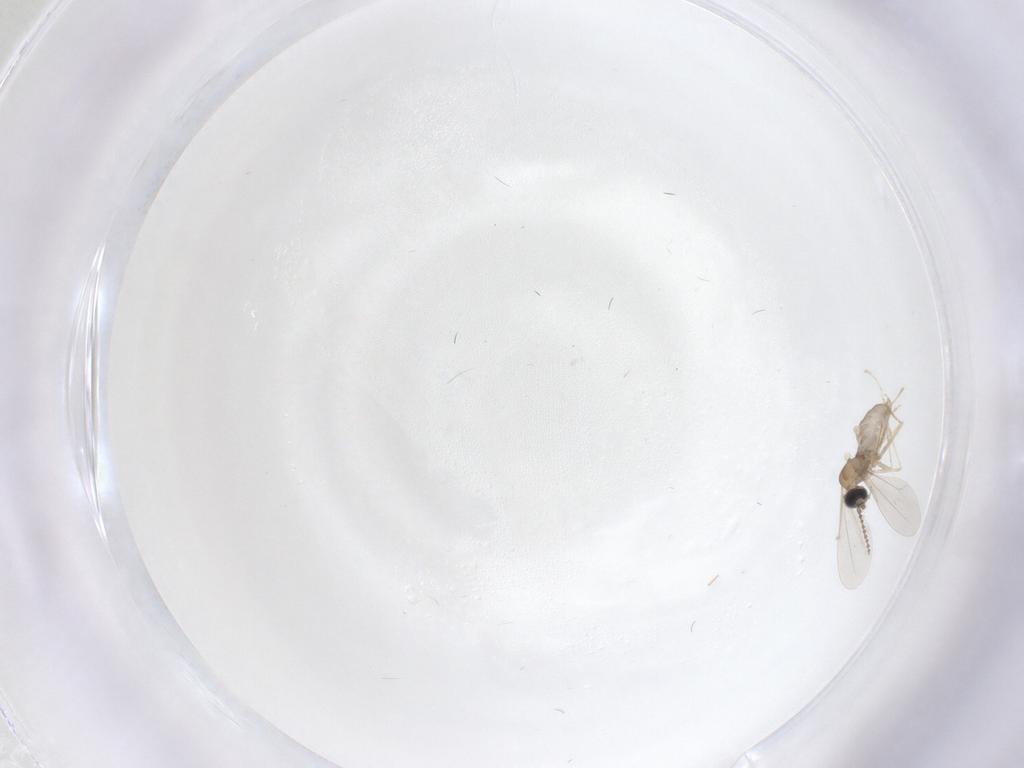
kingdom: Animalia
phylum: Arthropoda
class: Insecta
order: Diptera
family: Cecidomyiidae
